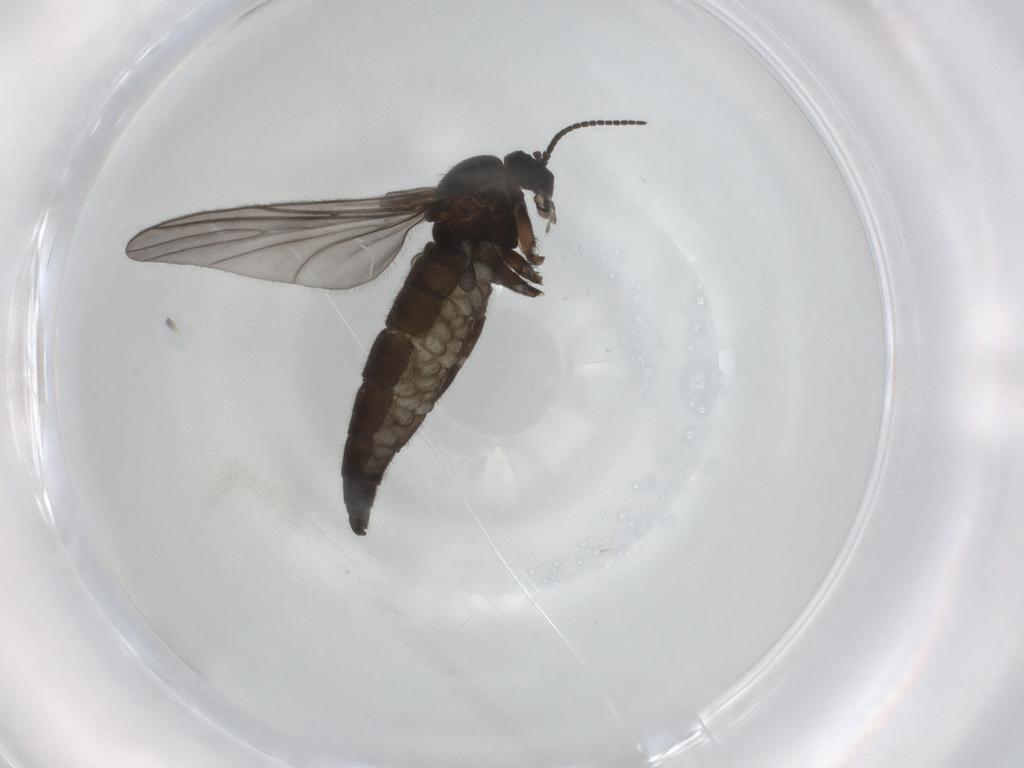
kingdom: Animalia
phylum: Arthropoda
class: Insecta
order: Diptera
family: Sciaridae
